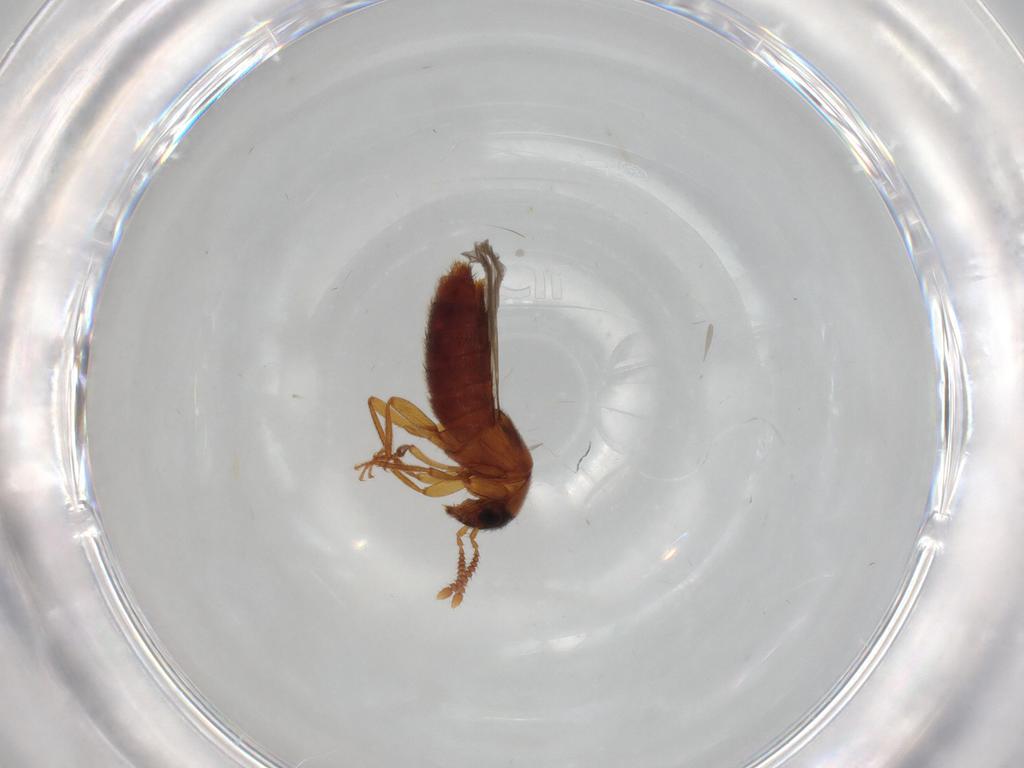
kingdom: Animalia
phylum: Arthropoda
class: Insecta
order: Coleoptera
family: Staphylinidae
